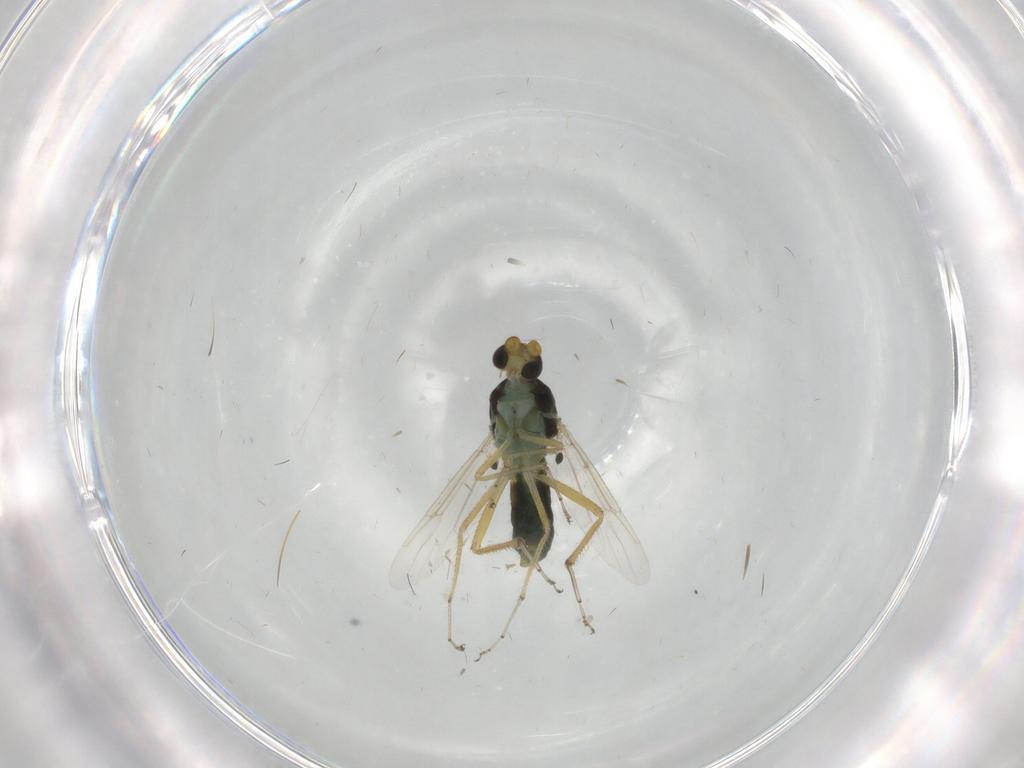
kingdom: Animalia
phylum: Arthropoda
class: Insecta
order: Diptera
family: Ceratopogonidae
